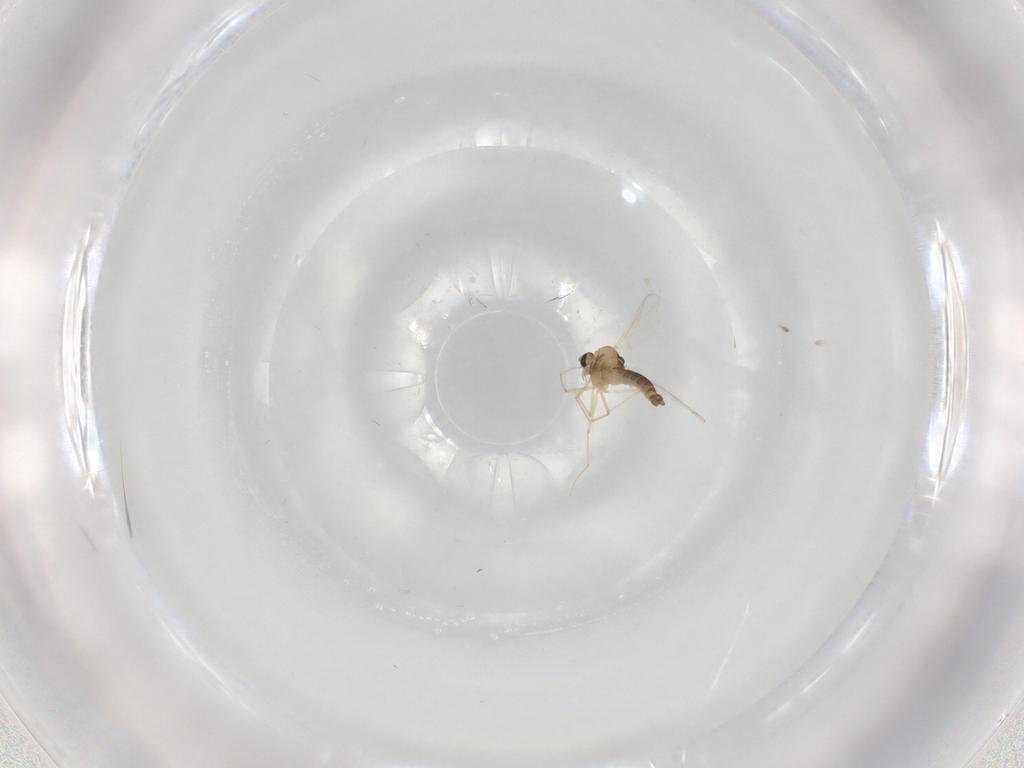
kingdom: Animalia
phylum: Arthropoda
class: Insecta
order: Diptera
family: Chironomidae
